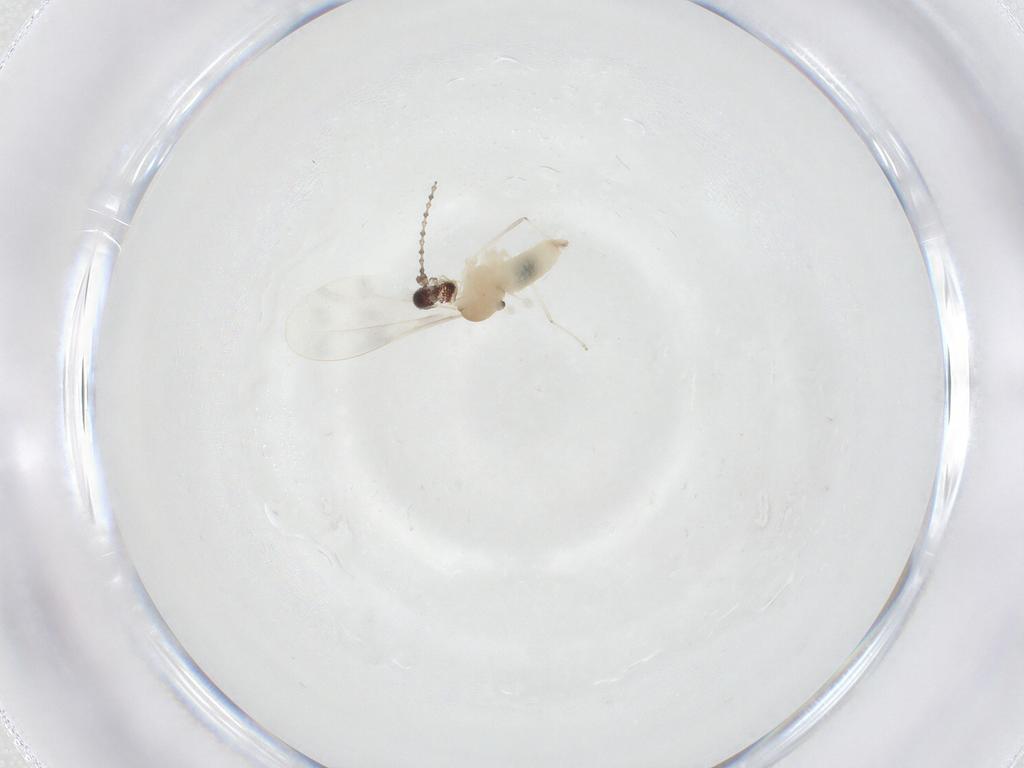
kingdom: Animalia
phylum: Arthropoda
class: Insecta
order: Diptera
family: Cecidomyiidae
